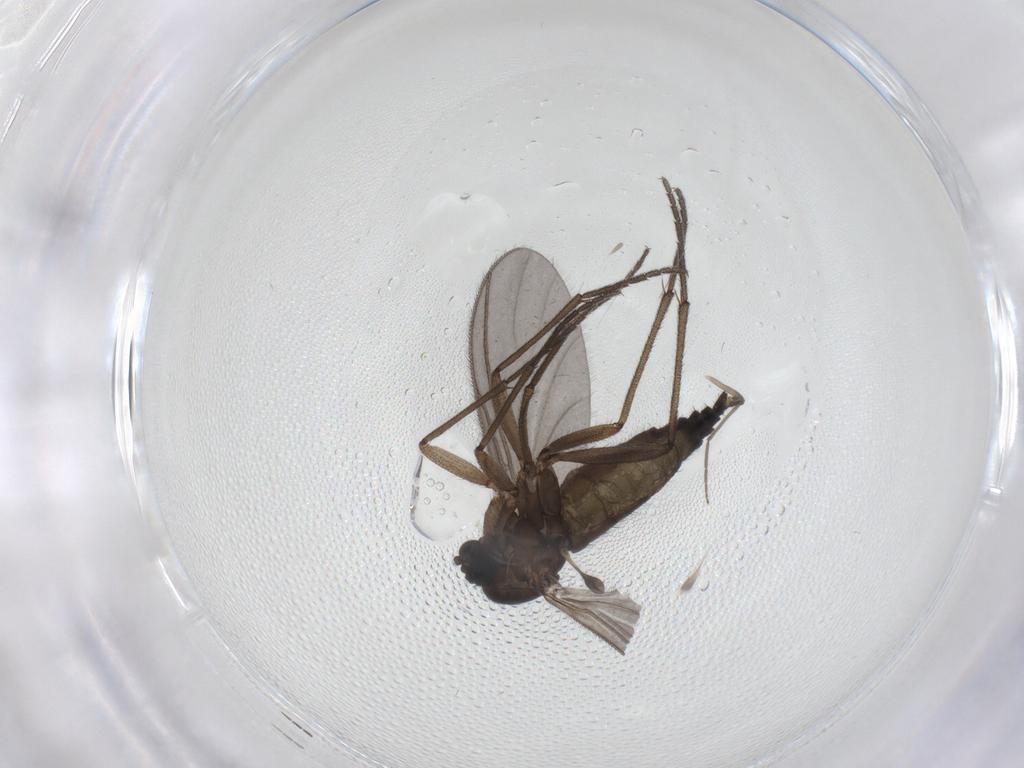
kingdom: Animalia
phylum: Arthropoda
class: Insecta
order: Diptera
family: Sciaridae
